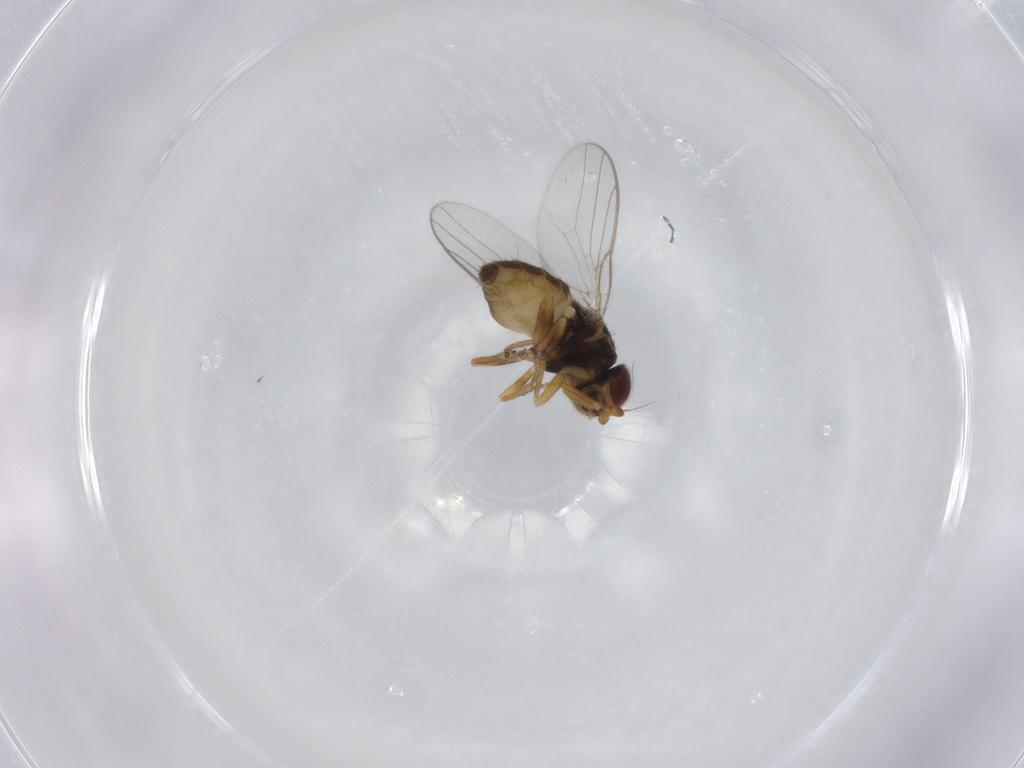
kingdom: Animalia
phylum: Arthropoda
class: Insecta
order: Diptera
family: Chloropidae
